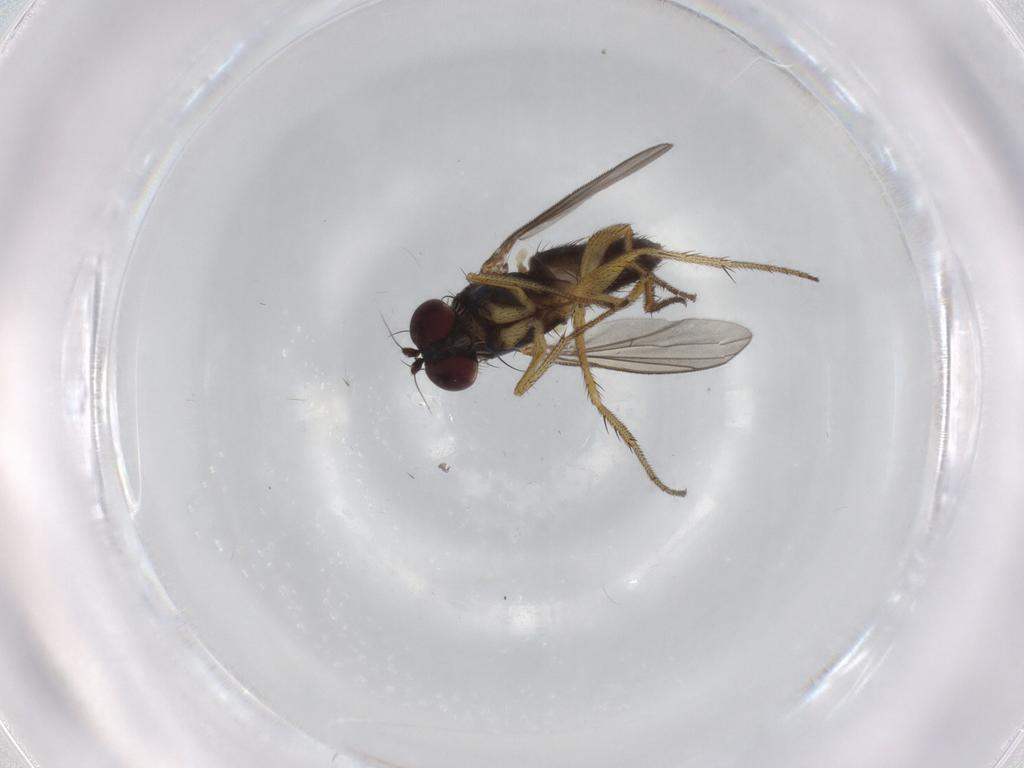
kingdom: Animalia
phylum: Arthropoda
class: Insecta
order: Diptera
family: Dolichopodidae
